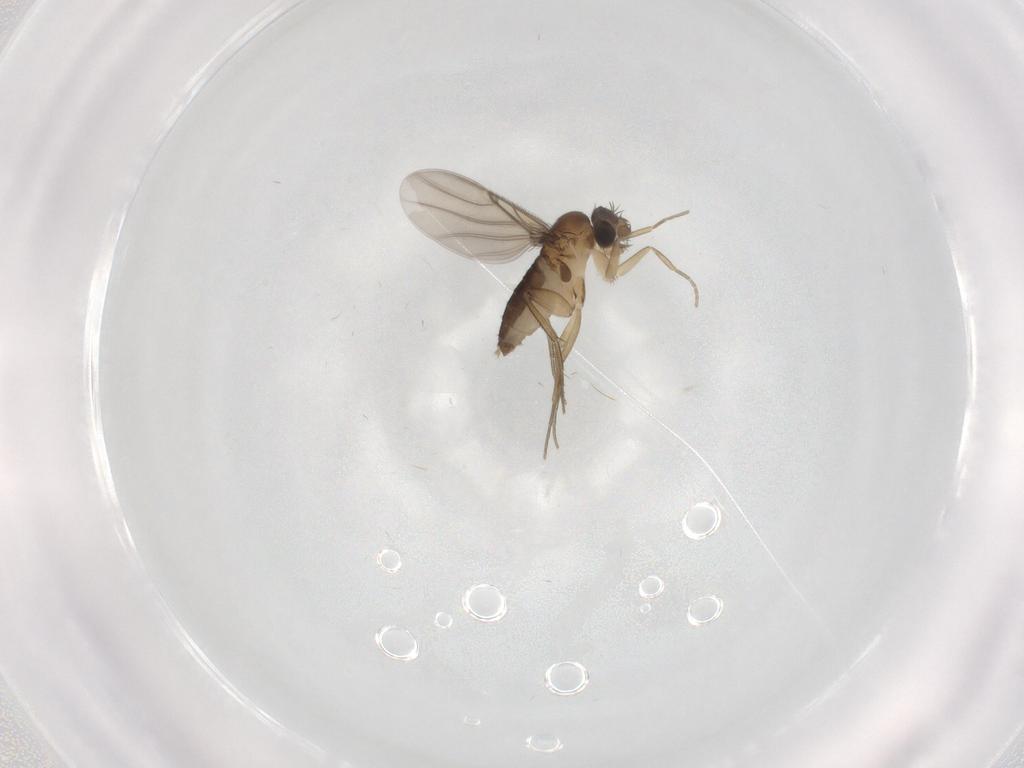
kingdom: Animalia
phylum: Arthropoda
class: Insecta
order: Diptera
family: Phoridae
